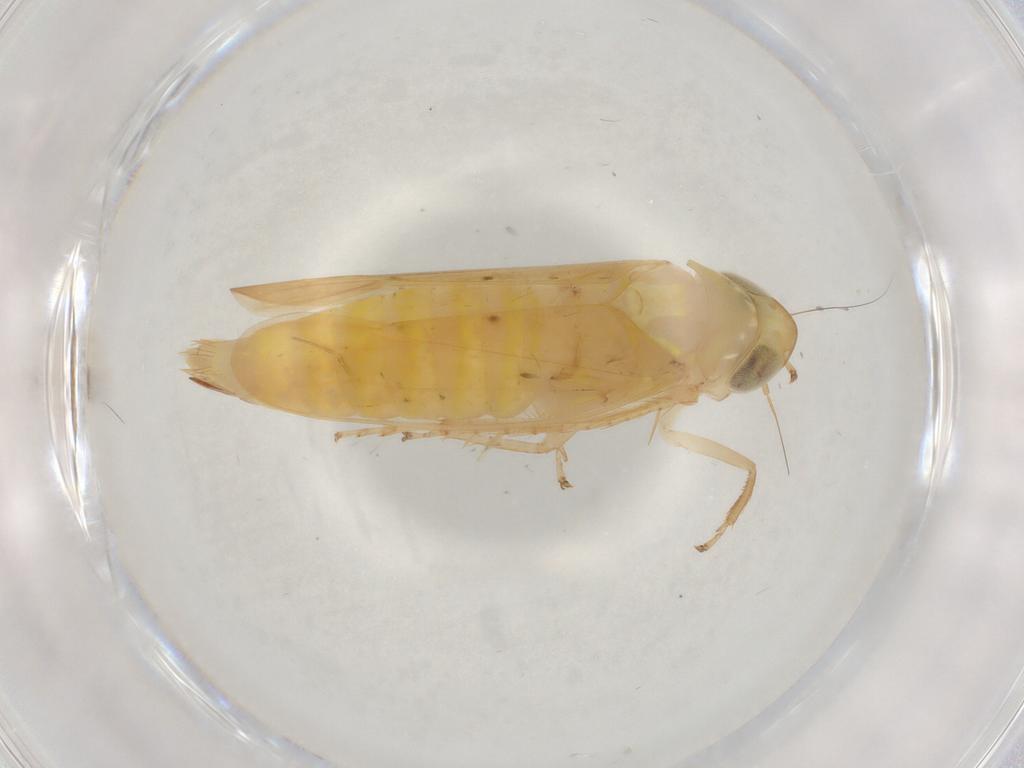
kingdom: Animalia
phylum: Arthropoda
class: Insecta
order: Hemiptera
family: Cicadellidae
